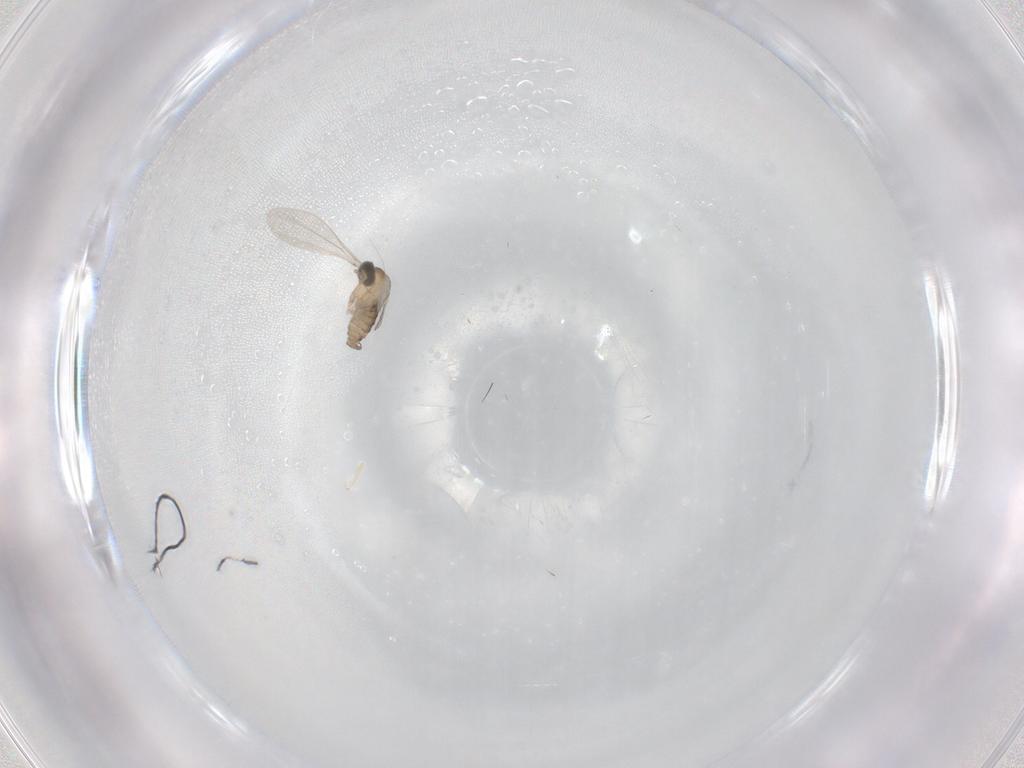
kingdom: Animalia
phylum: Arthropoda
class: Insecta
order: Diptera
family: Cecidomyiidae
